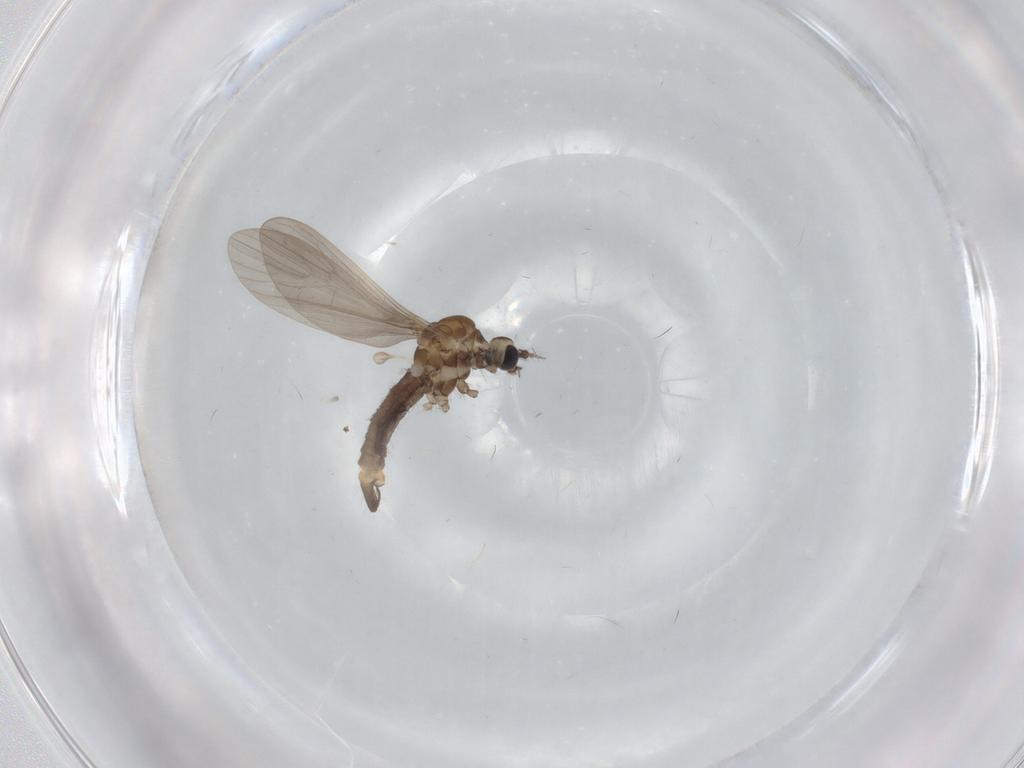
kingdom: Animalia
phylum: Arthropoda
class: Insecta
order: Diptera
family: Limoniidae
